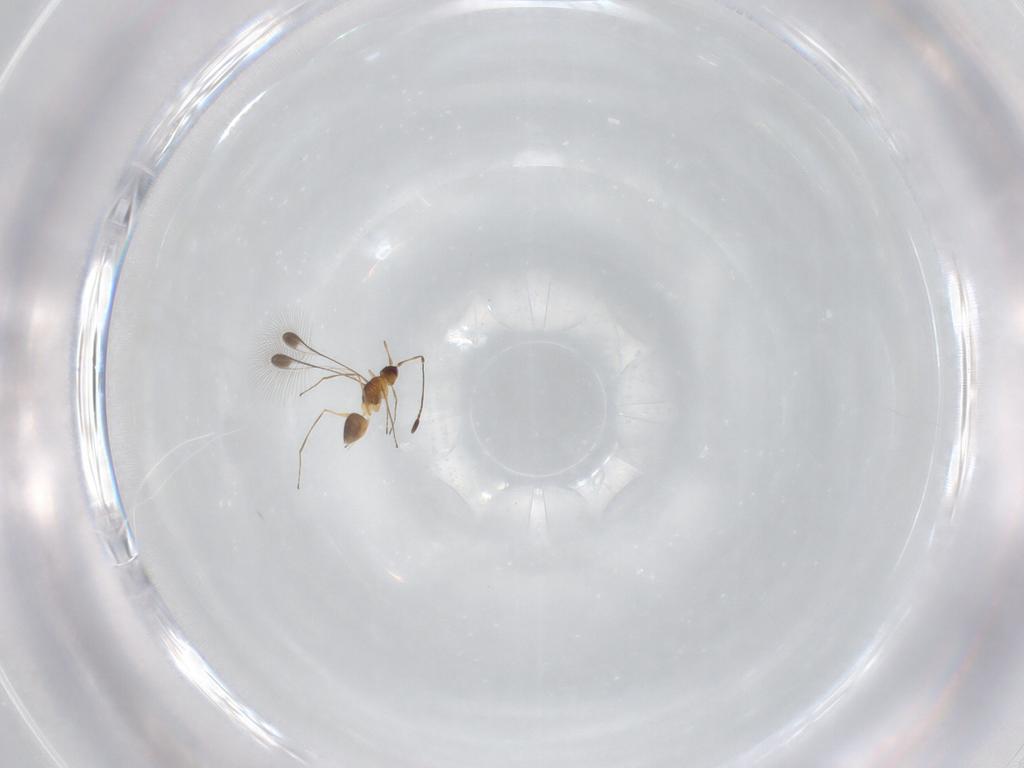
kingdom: Animalia
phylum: Arthropoda
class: Insecta
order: Hymenoptera
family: Mymaridae
